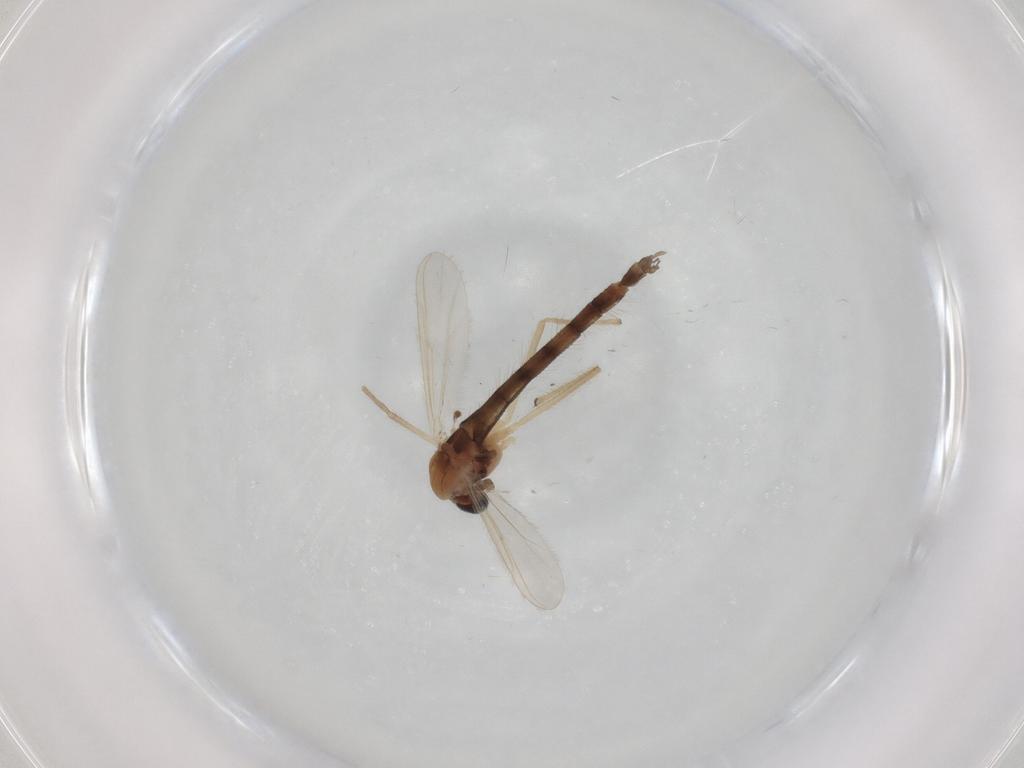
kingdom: Animalia
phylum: Arthropoda
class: Insecta
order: Diptera
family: Chironomidae
